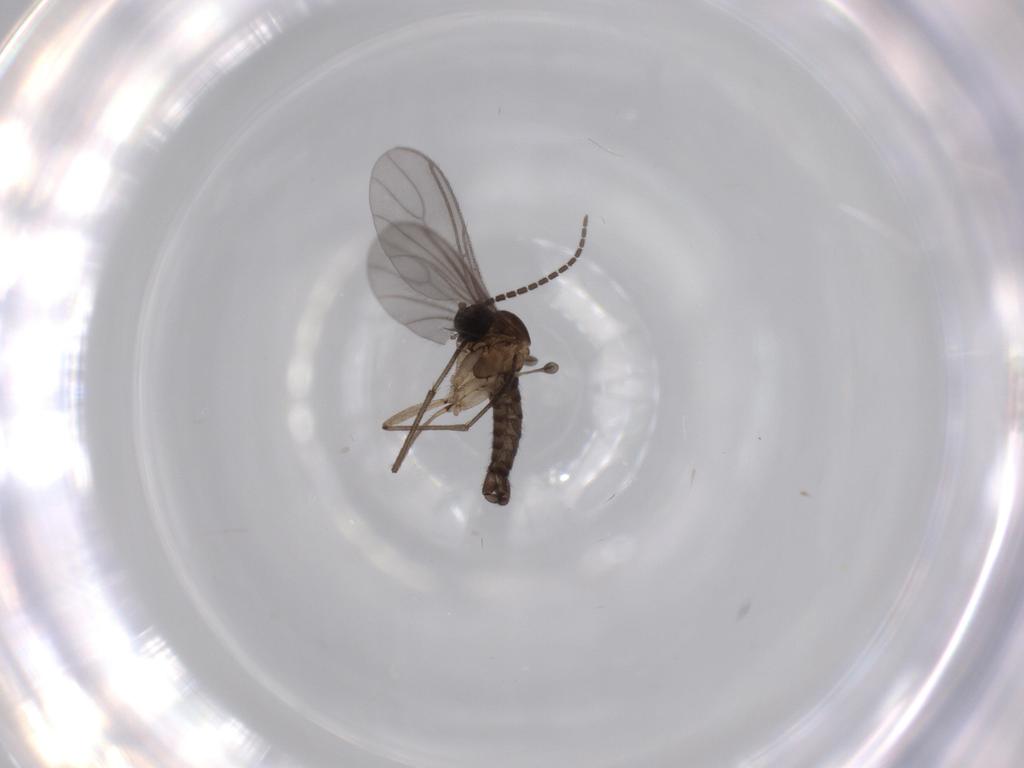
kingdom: Animalia
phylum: Arthropoda
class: Insecta
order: Diptera
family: Sciaridae
